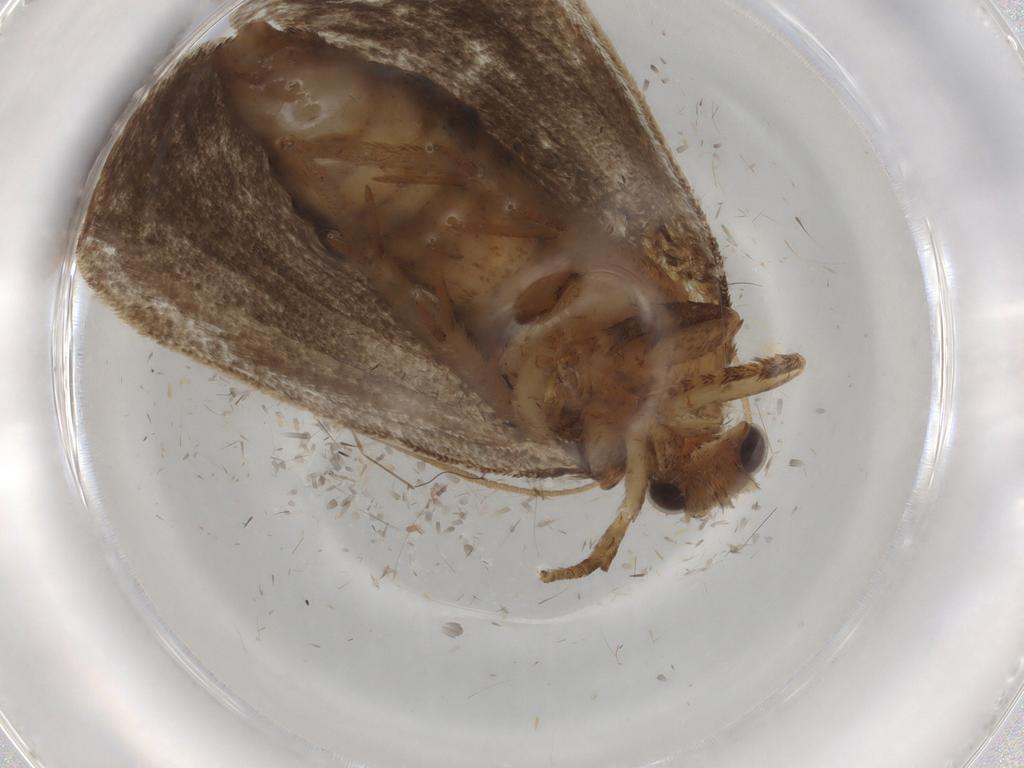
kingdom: Animalia
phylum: Arthropoda
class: Insecta
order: Lepidoptera
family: Tineidae
